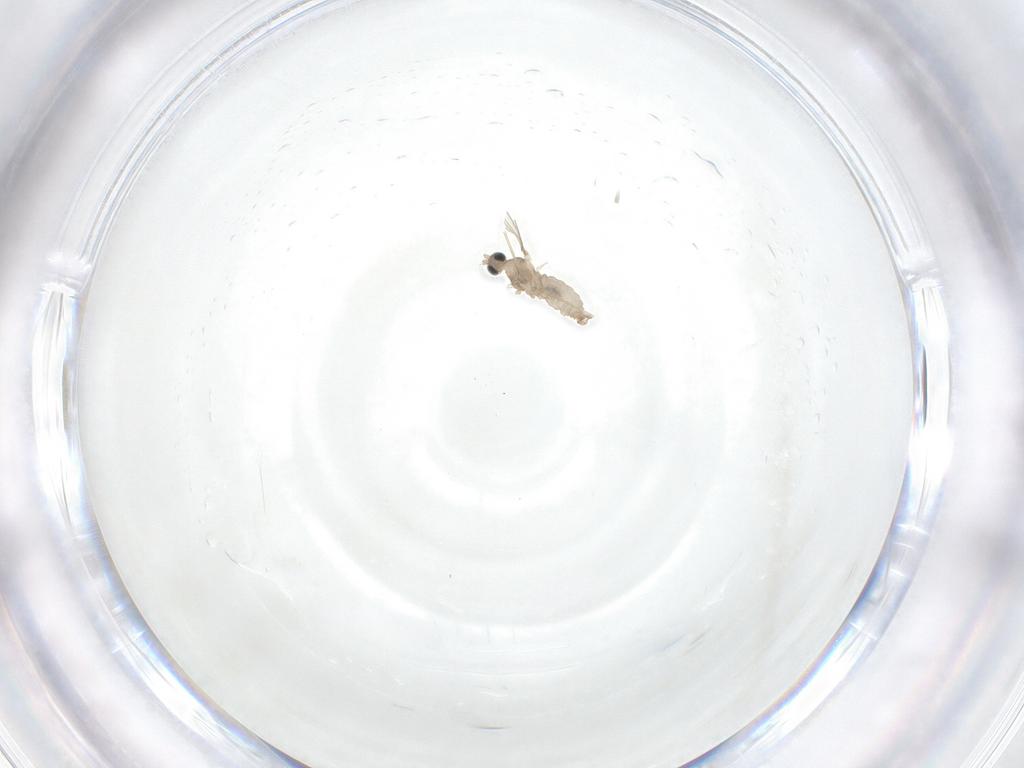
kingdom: Animalia
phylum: Arthropoda
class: Insecta
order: Diptera
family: Cecidomyiidae
